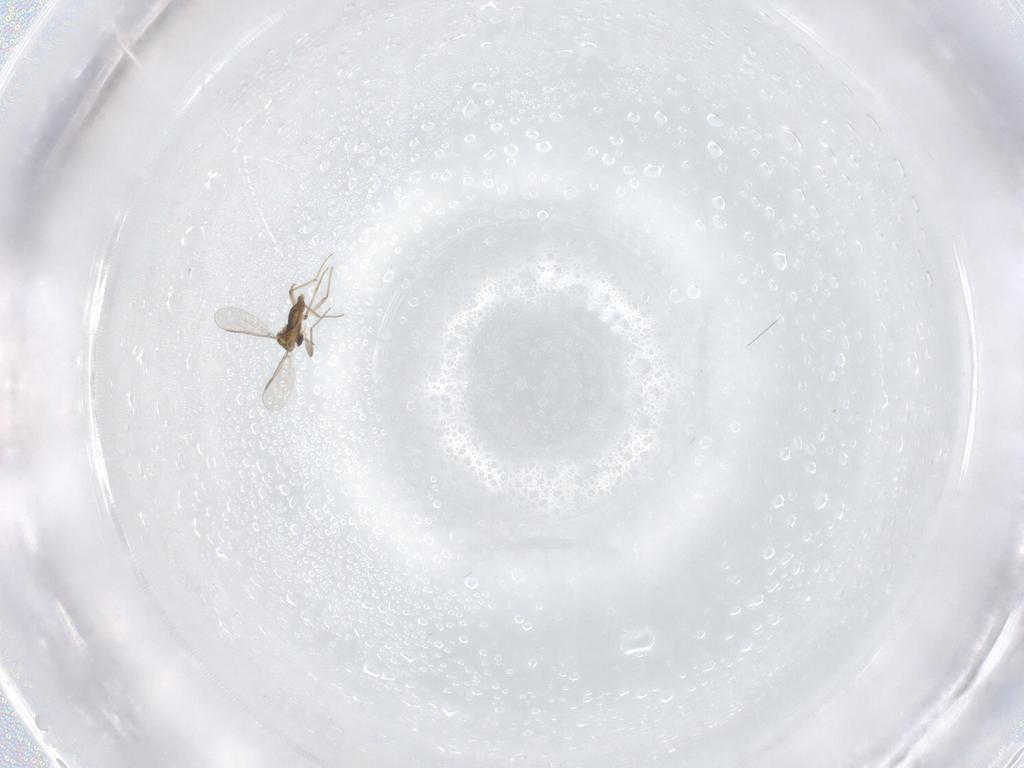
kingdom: Animalia
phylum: Arthropoda
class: Insecta
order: Diptera
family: Chironomidae
